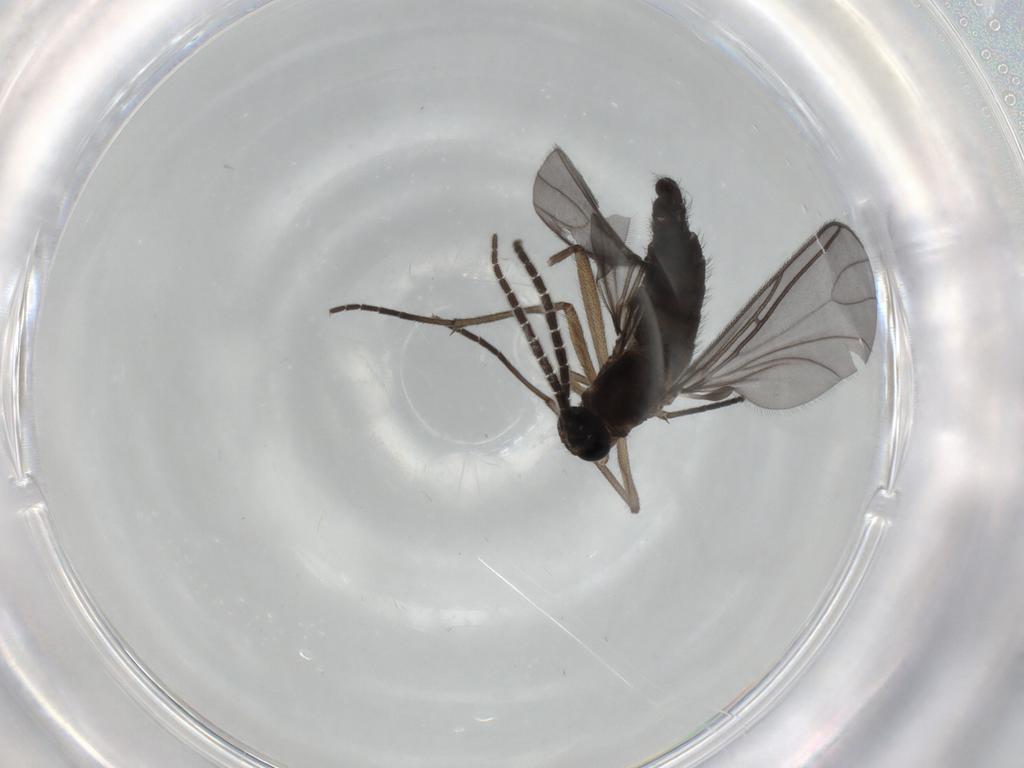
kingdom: Animalia
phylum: Arthropoda
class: Insecta
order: Diptera
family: Sciaridae
